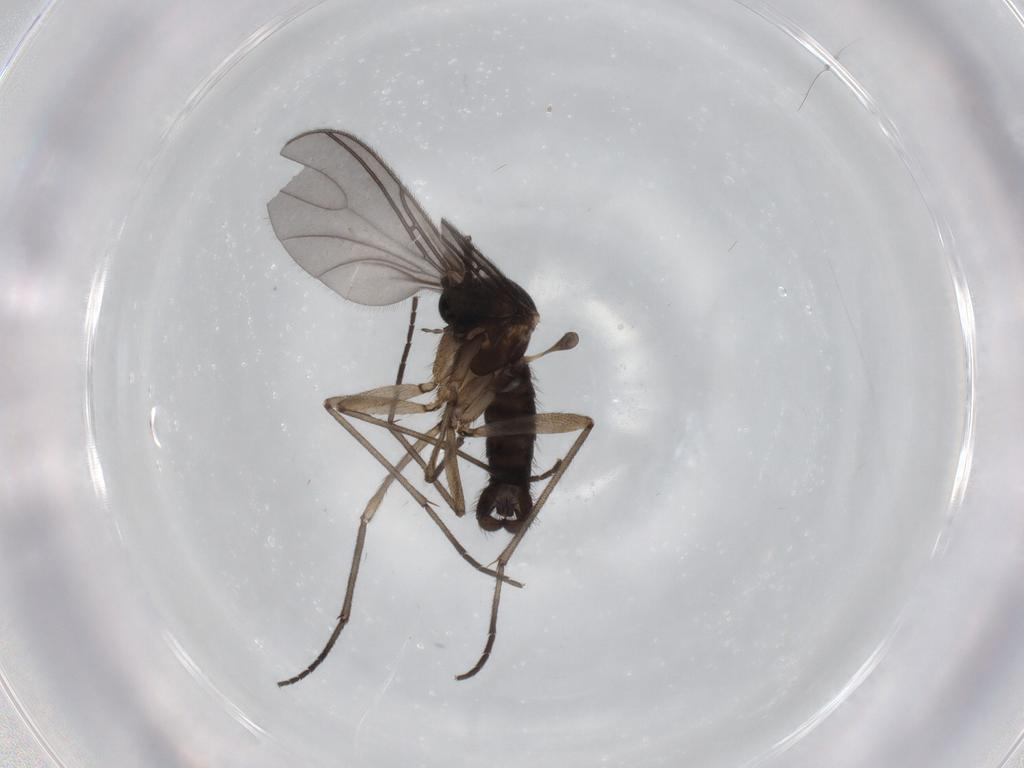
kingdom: Animalia
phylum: Arthropoda
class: Insecta
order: Diptera
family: Sciaridae
